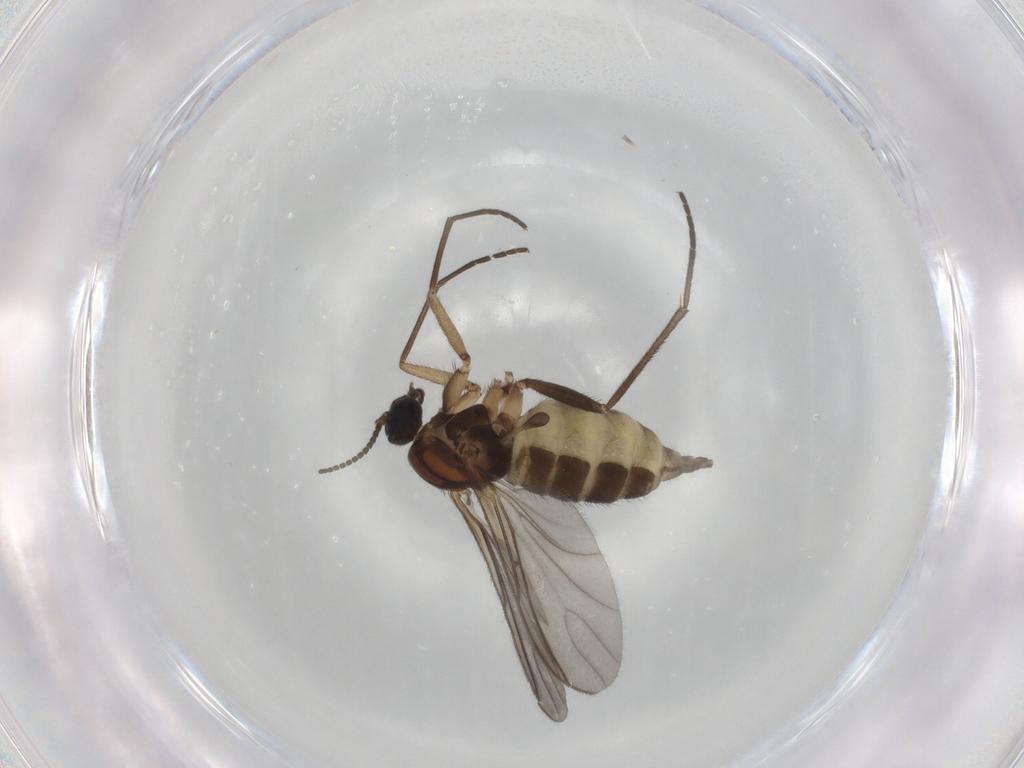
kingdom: Animalia
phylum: Arthropoda
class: Insecta
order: Diptera
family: Sciaridae
